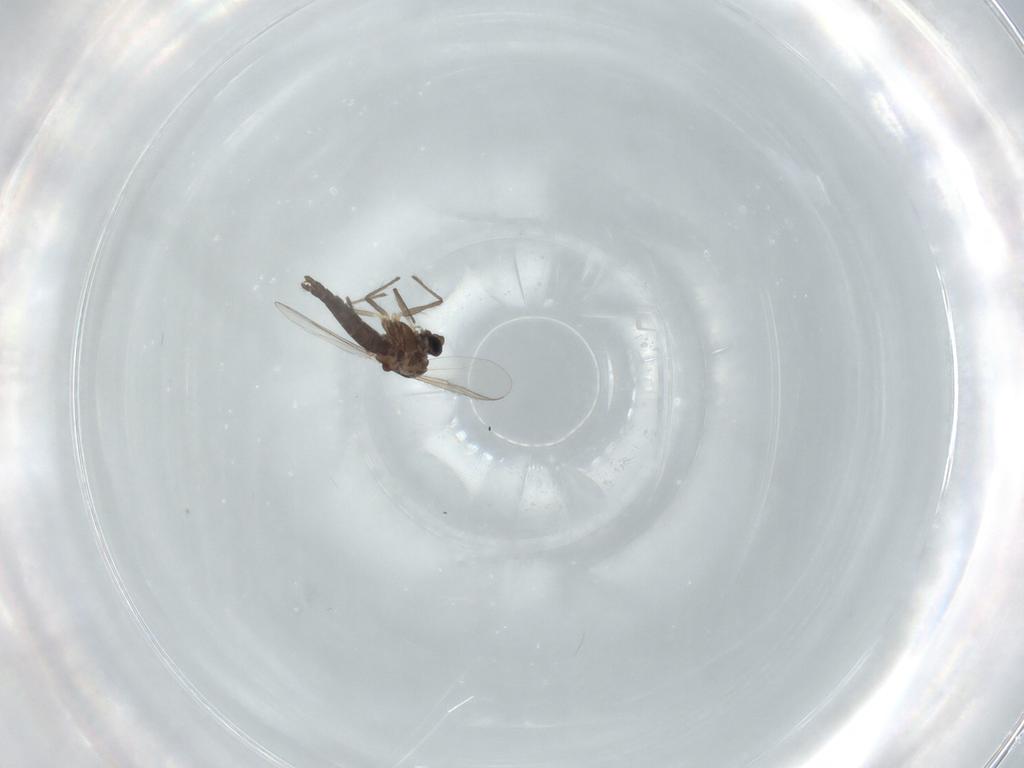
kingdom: Animalia
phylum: Arthropoda
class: Insecta
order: Diptera
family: Chironomidae
